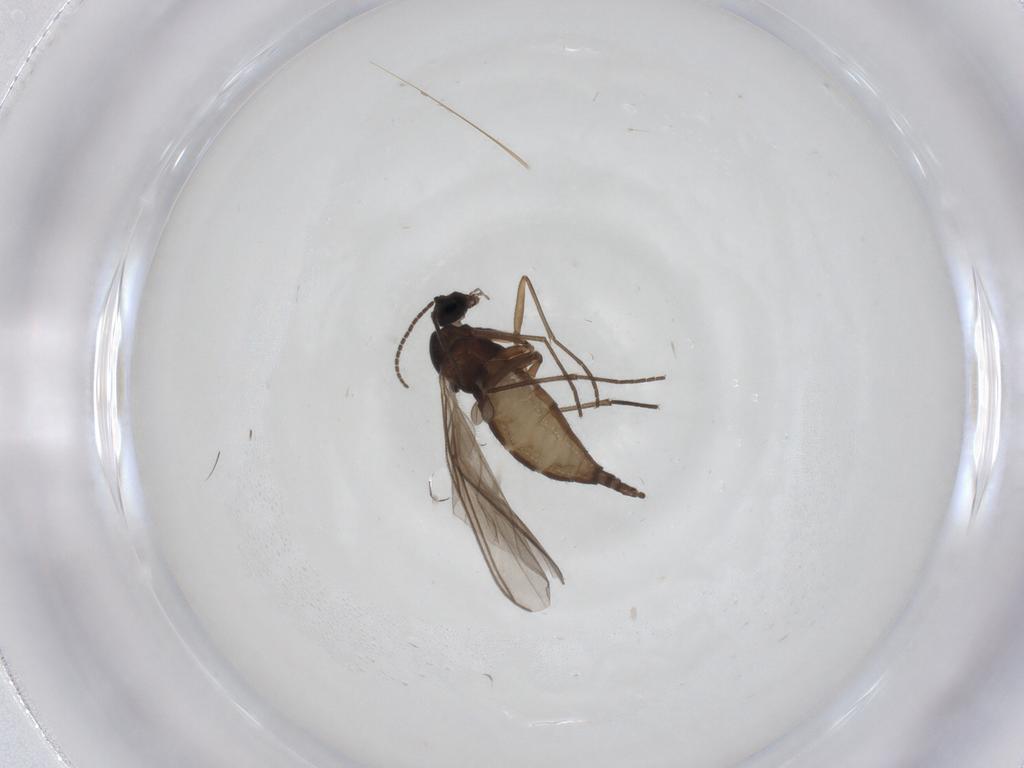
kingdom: Animalia
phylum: Arthropoda
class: Insecta
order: Diptera
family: Sciaridae
